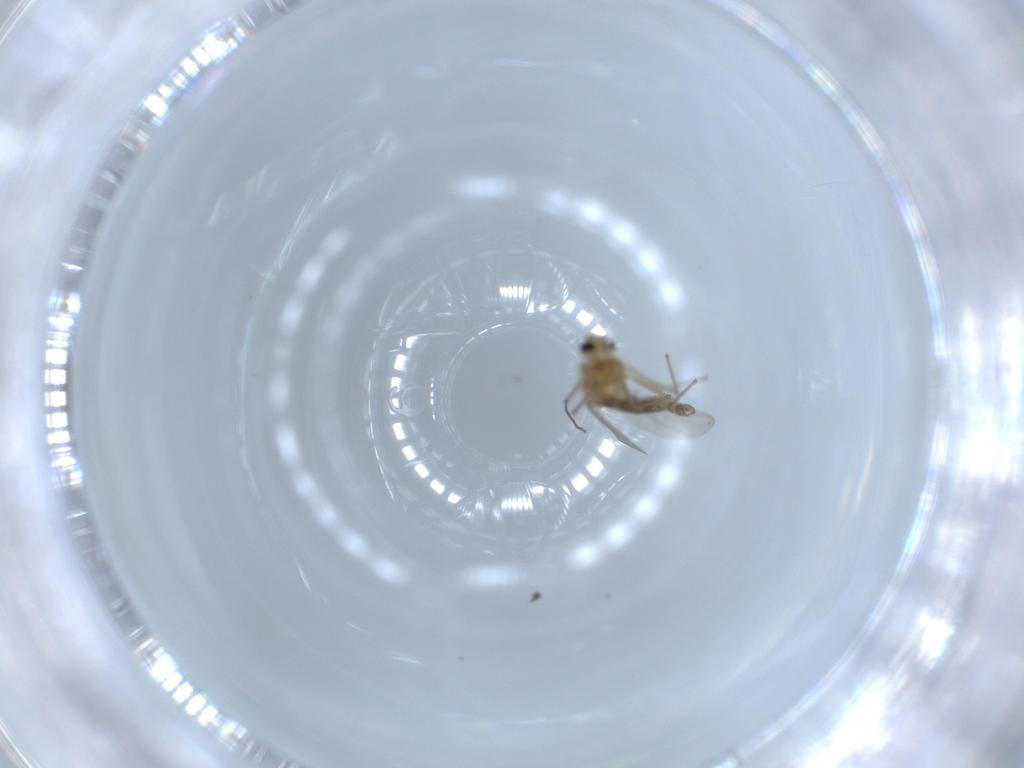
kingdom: Animalia
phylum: Arthropoda
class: Insecta
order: Diptera
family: Chironomidae
